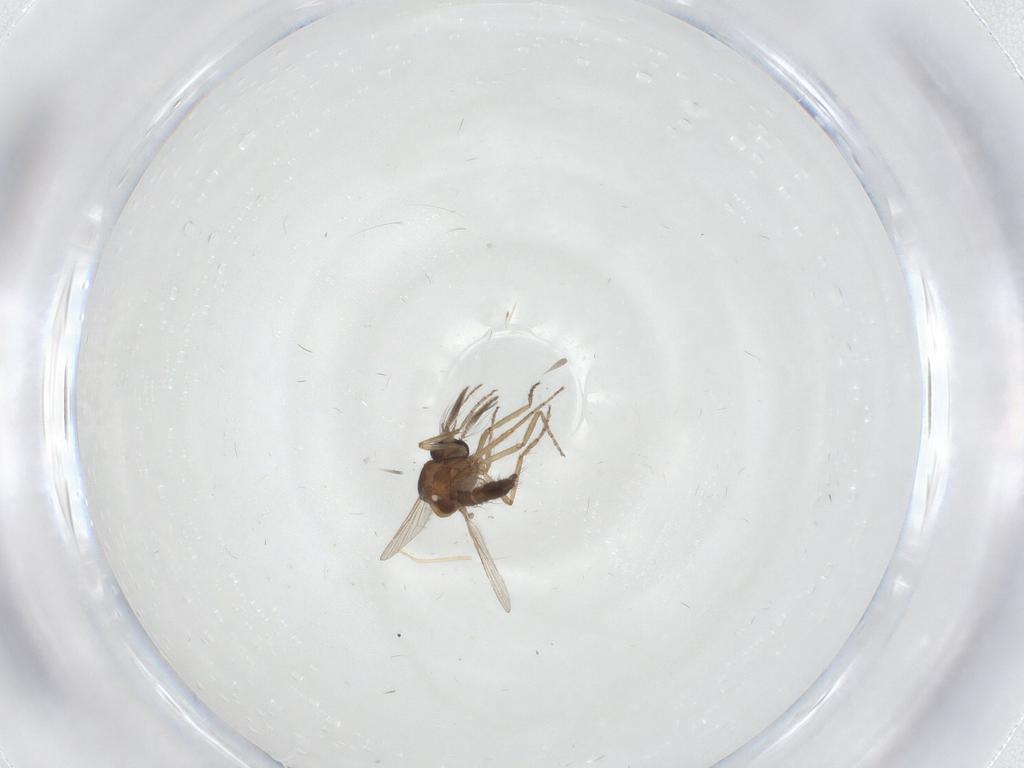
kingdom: Animalia
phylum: Arthropoda
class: Insecta
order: Diptera
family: Ceratopogonidae
